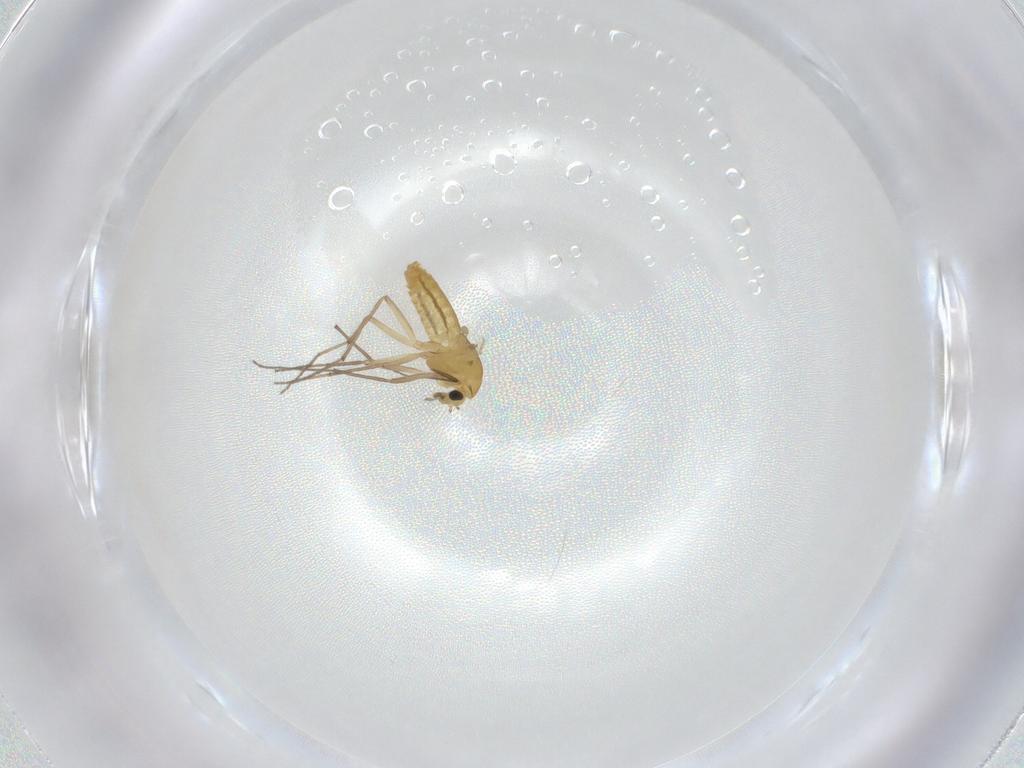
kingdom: Animalia
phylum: Arthropoda
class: Insecta
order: Diptera
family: Chironomidae
